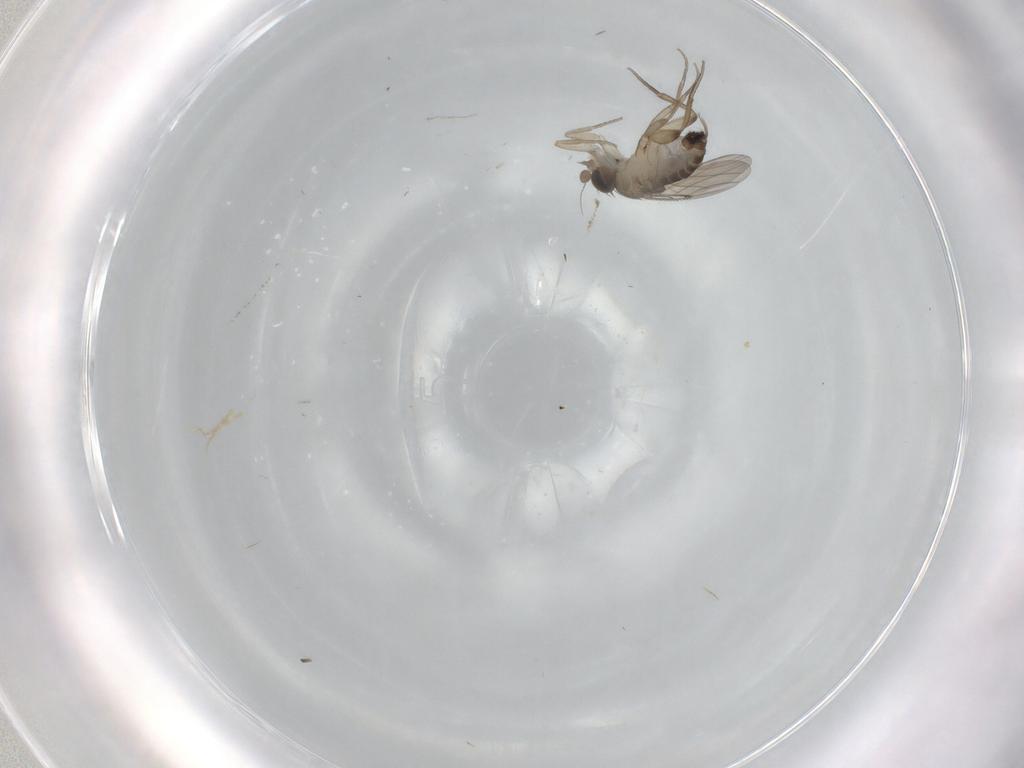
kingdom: Animalia
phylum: Arthropoda
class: Insecta
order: Diptera
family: Phoridae
